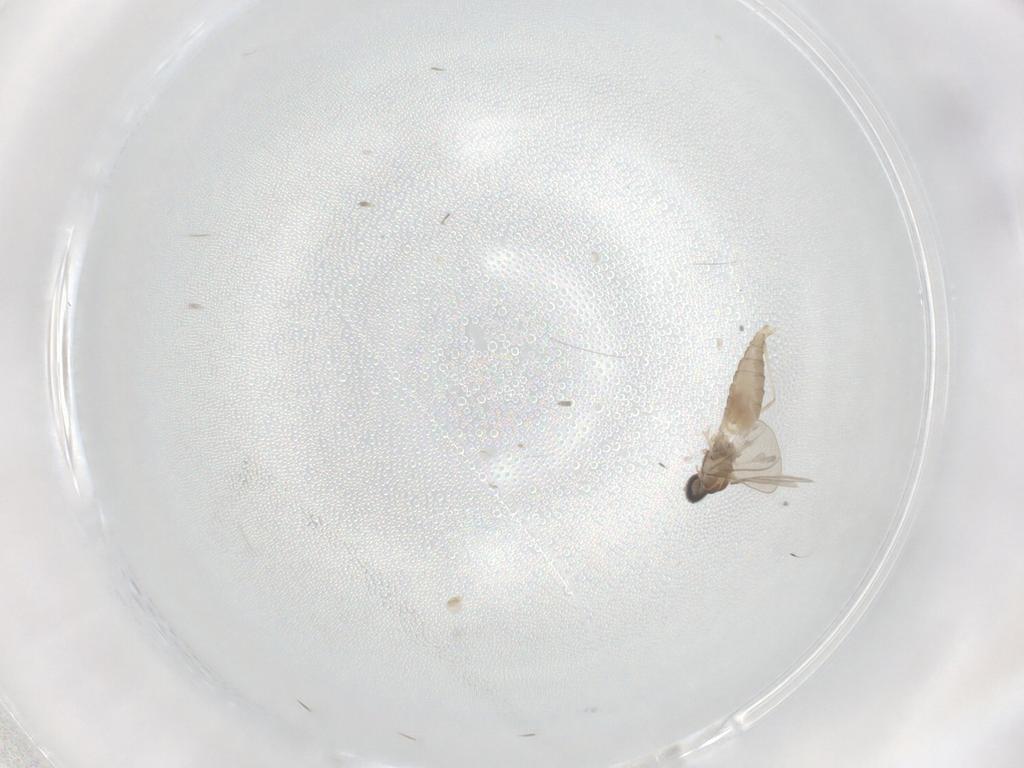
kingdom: Animalia
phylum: Arthropoda
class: Insecta
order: Diptera
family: Cecidomyiidae
